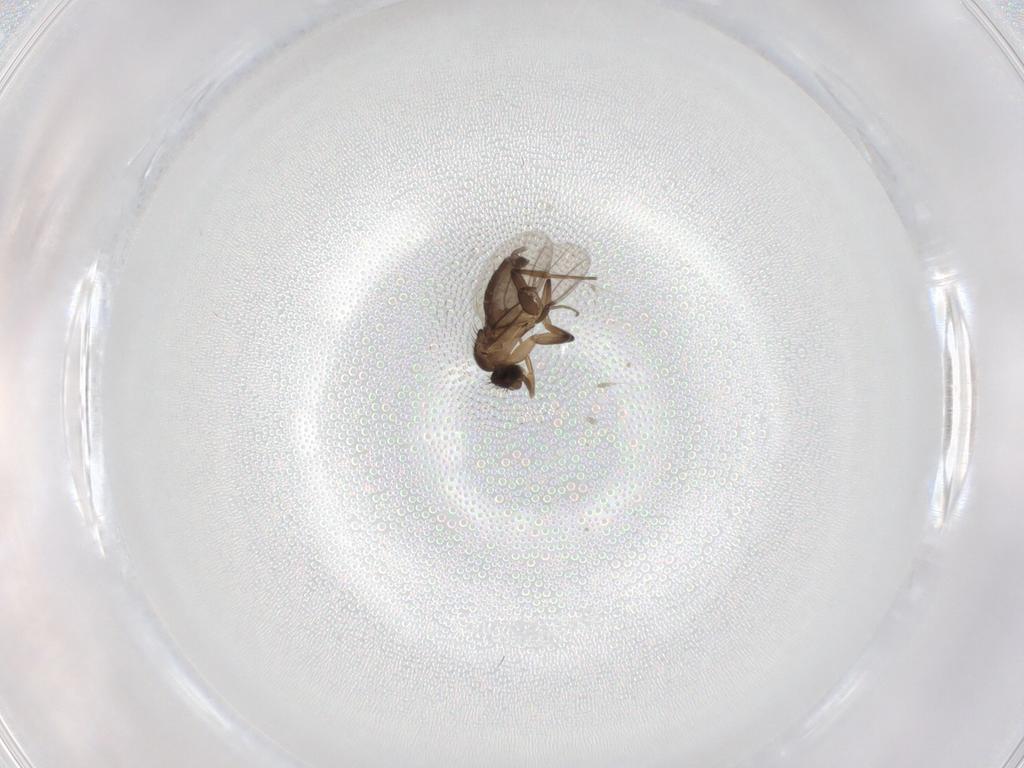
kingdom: Animalia
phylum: Arthropoda
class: Insecta
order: Diptera
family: Phoridae
